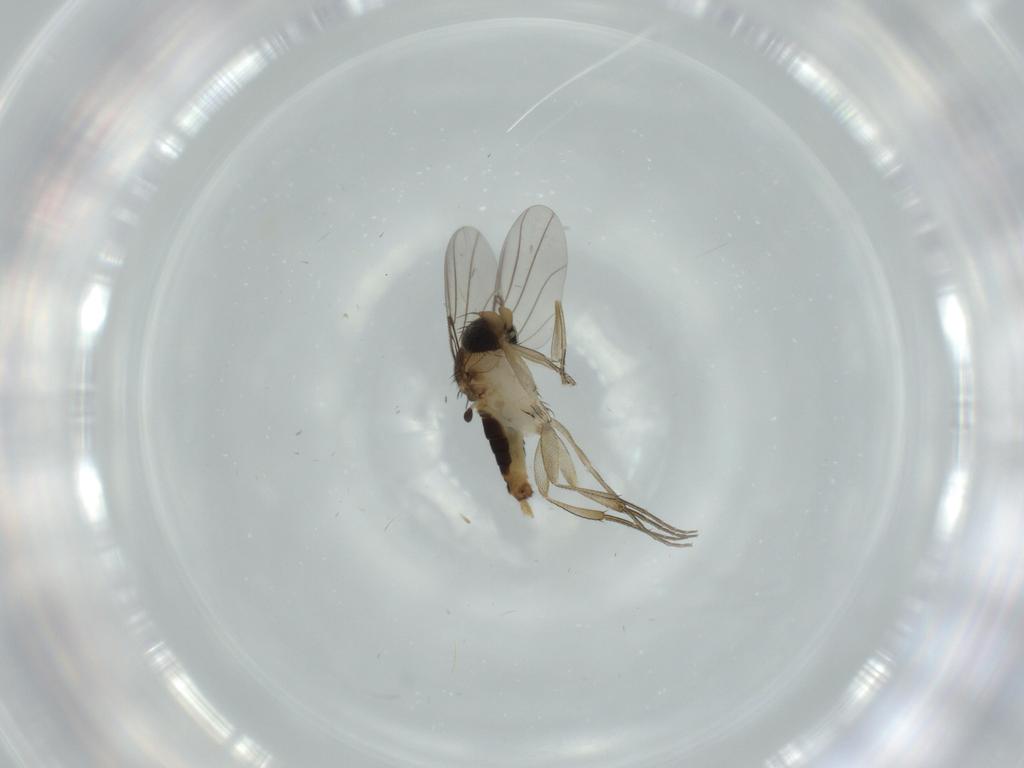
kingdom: Animalia
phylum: Arthropoda
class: Insecta
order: Diptera
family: Phoridae
